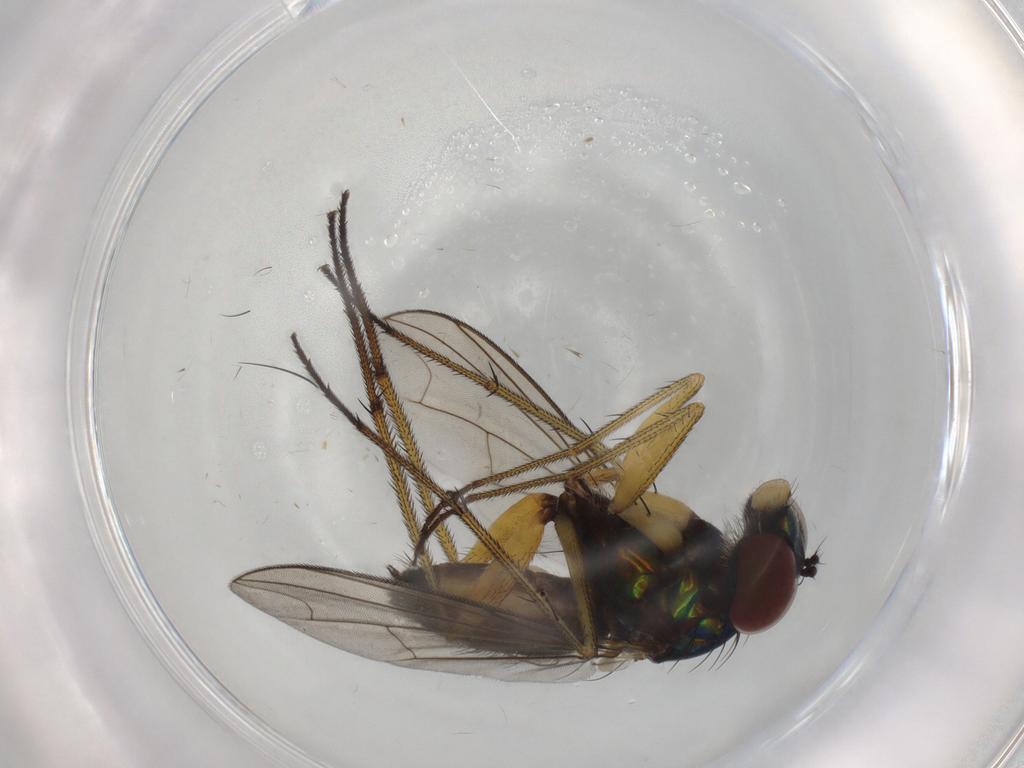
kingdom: Animalia
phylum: Arthropoda
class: Insecta
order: Diptera
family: Dolichopodidae
